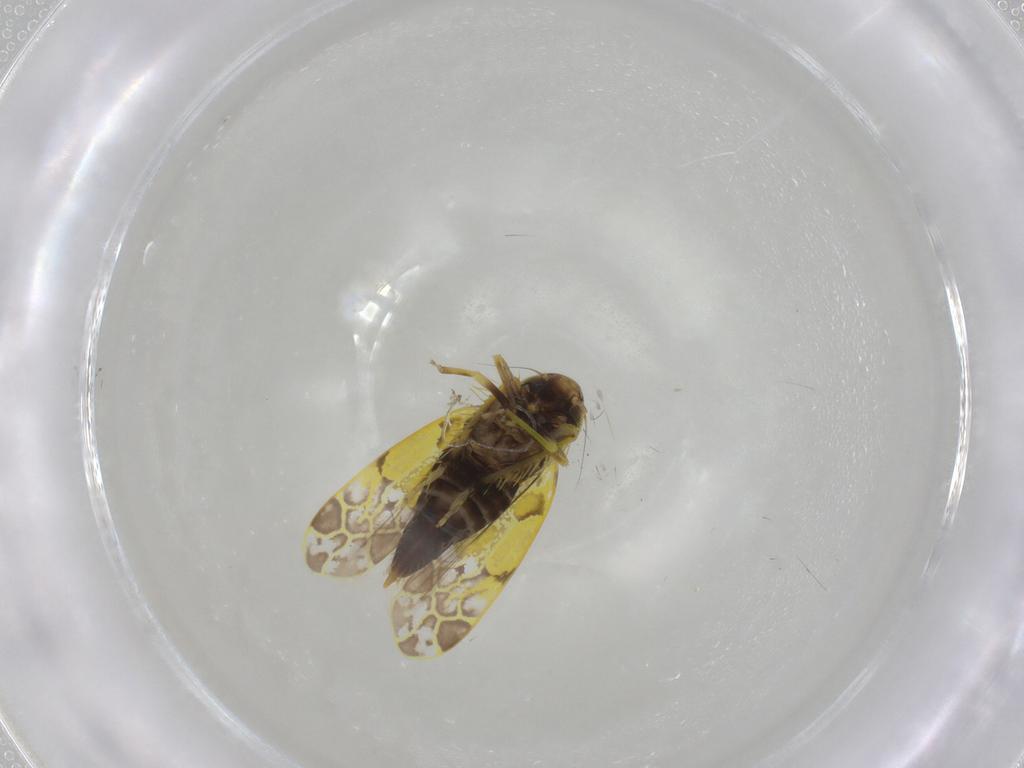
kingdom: Animalia
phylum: Arthropoda
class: Insecta
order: Hemiptera
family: Cicadellidae
